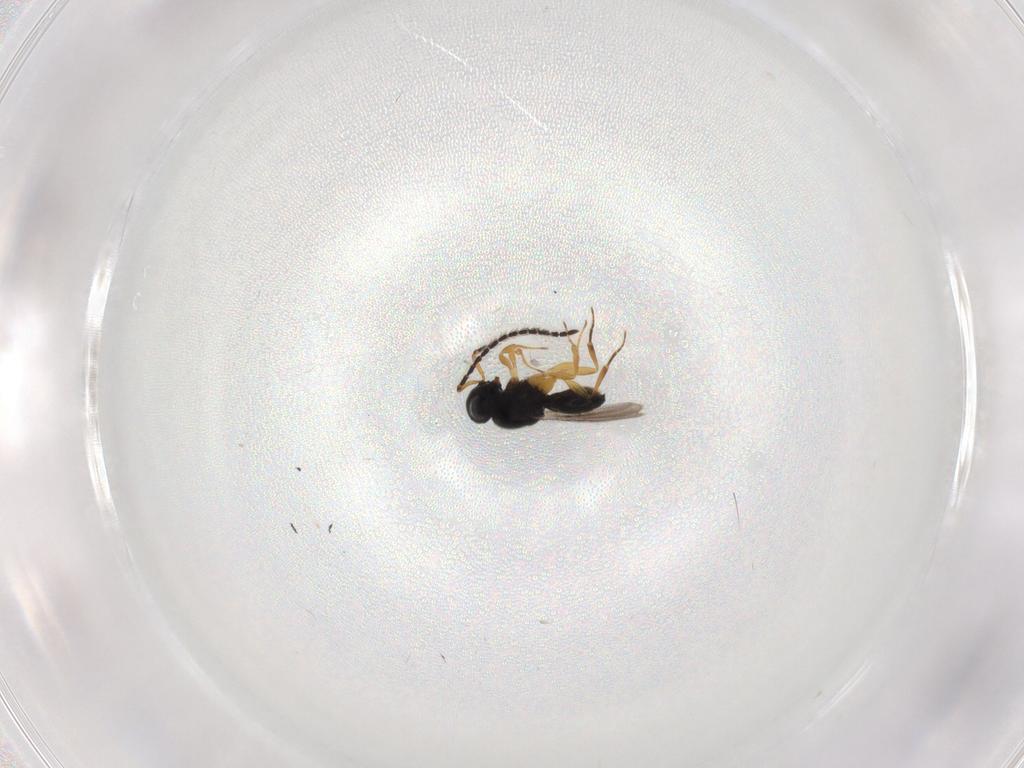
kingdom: Animalia
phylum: Arthropoda
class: Insecta
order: Hymenoptera
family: Scelionidae
